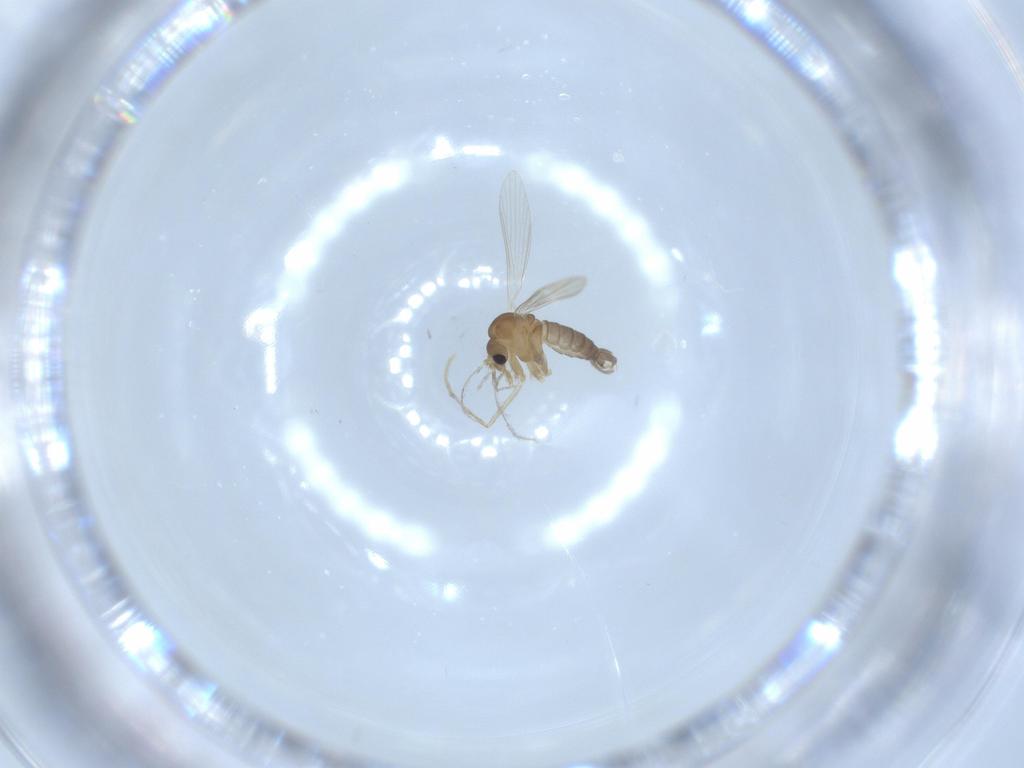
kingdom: Animalia
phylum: Arthropoda
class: Insecta
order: Diptera
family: Psychodidae
